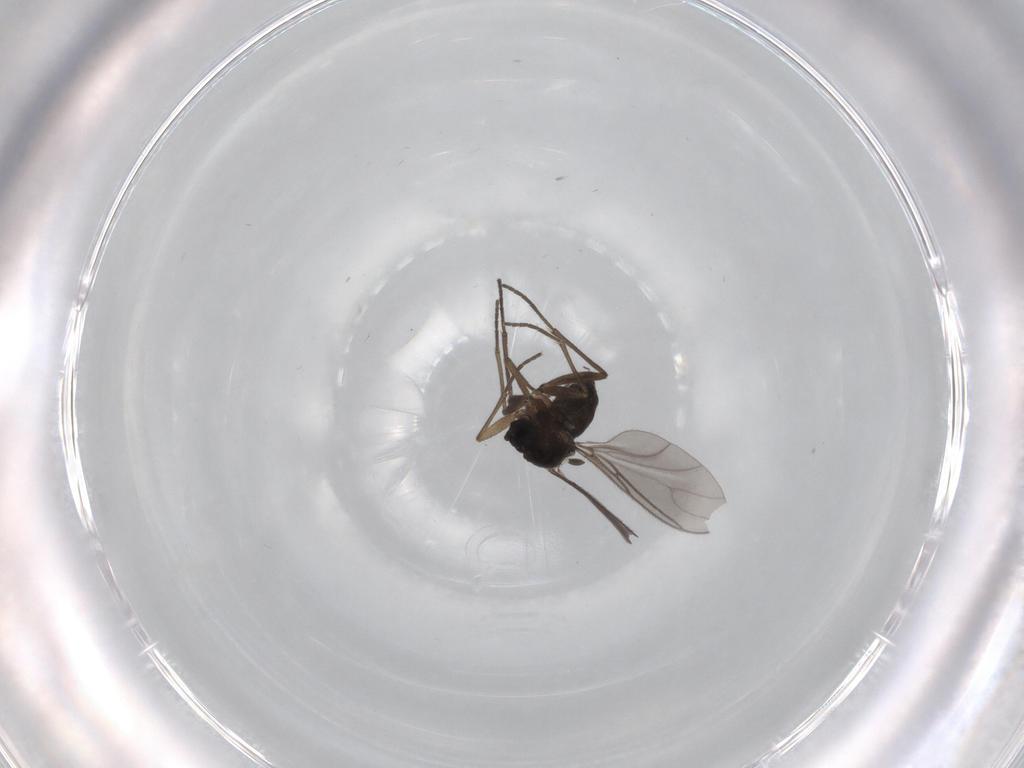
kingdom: Animalia
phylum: Arthropoda
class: Insecta
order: Diptera
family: Sciaridae
